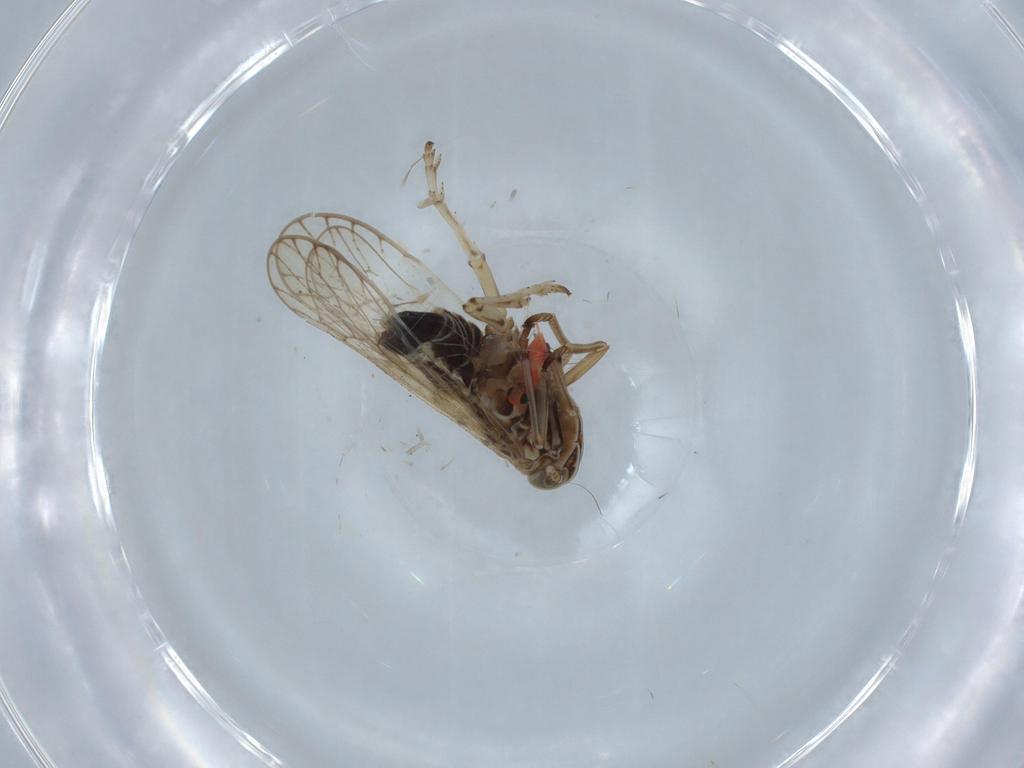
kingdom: Animalia
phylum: Arthropoda
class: Insecta
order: Hemiptera
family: Delphacidae
